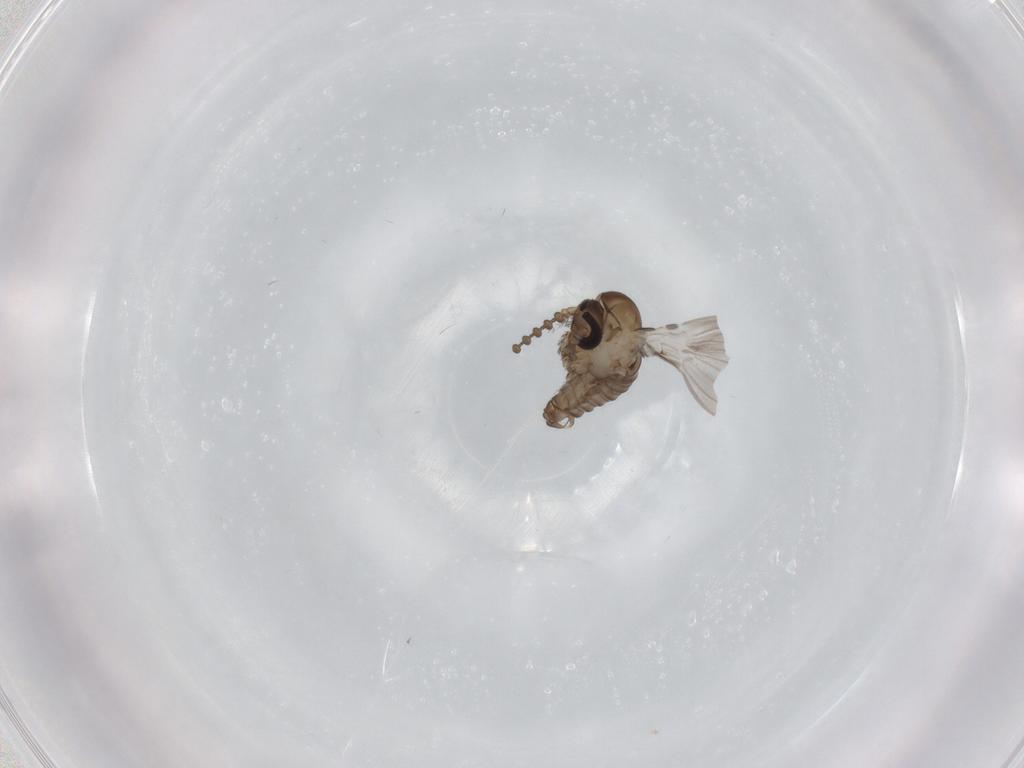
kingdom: Animalia
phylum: Arthropoda
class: Insecta
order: Diptera
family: Psychodidae
